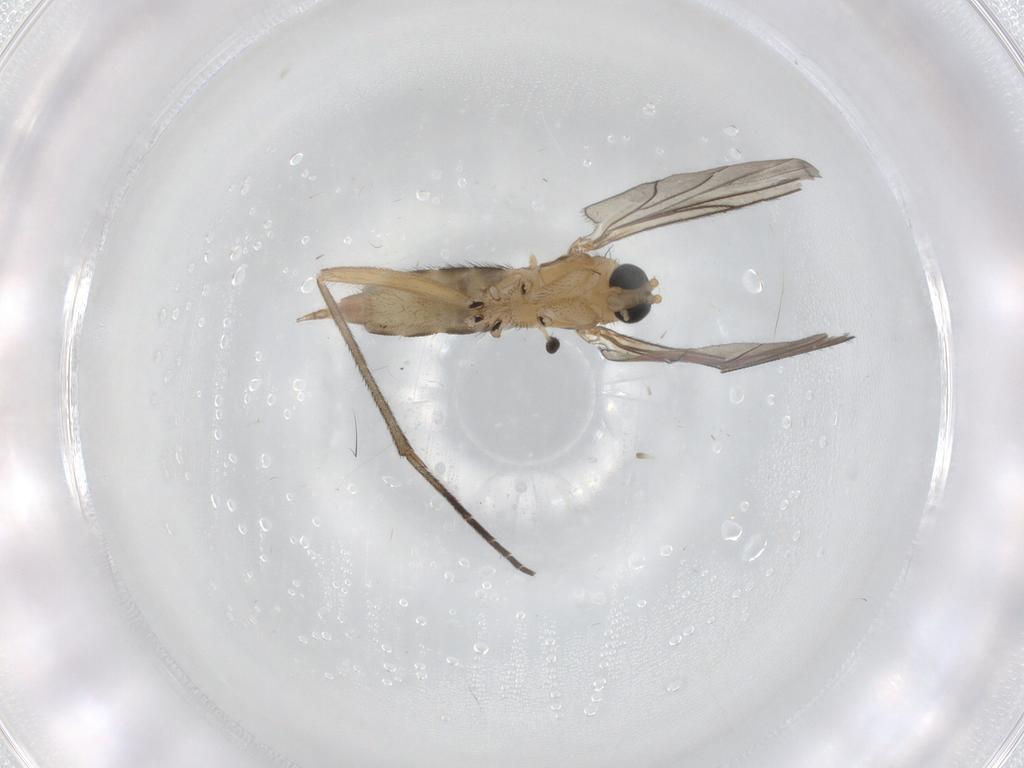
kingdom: Animalia
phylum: Arthropoda
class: Insecta
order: Diptera
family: Sciaridae
